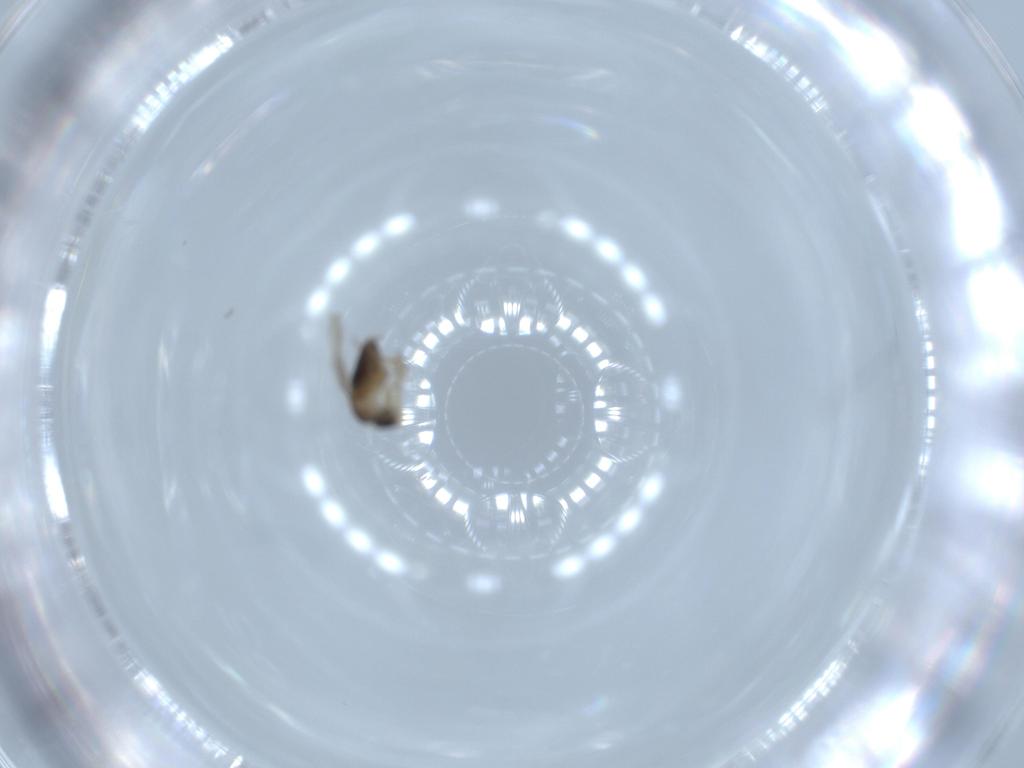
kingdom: Animalia
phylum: Arthropoda
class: Insecta
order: Diptera
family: Phoridae
